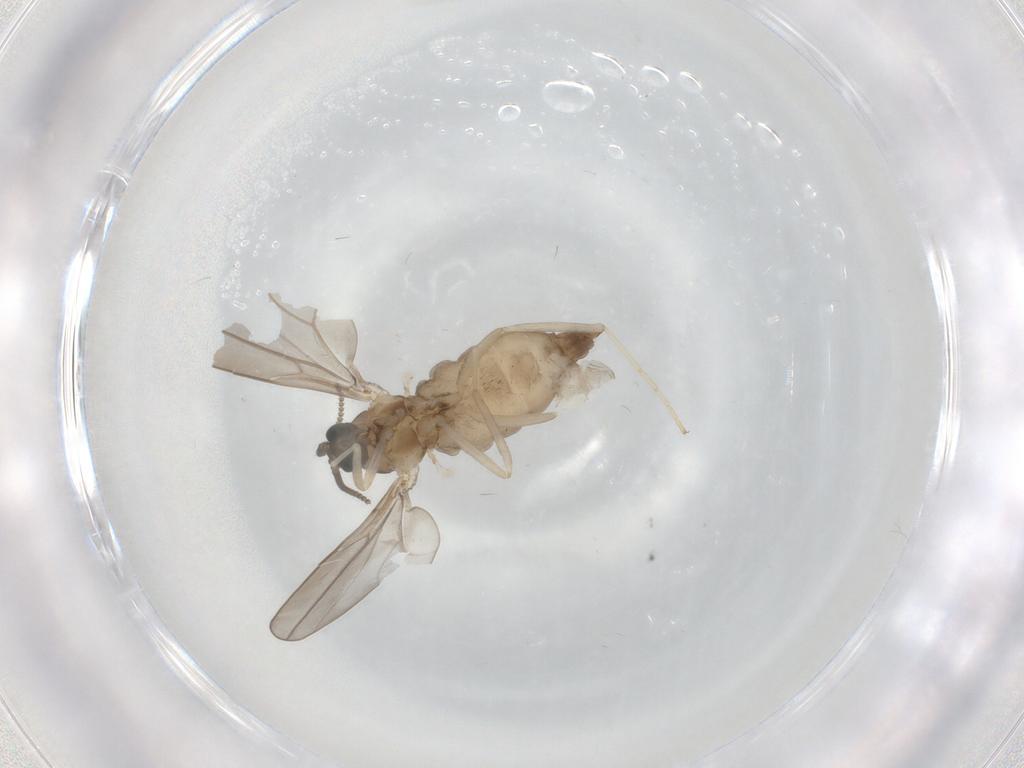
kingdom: Animalia
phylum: Arthropoda
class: Insecta
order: Diptera
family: Cecidomyiidae
